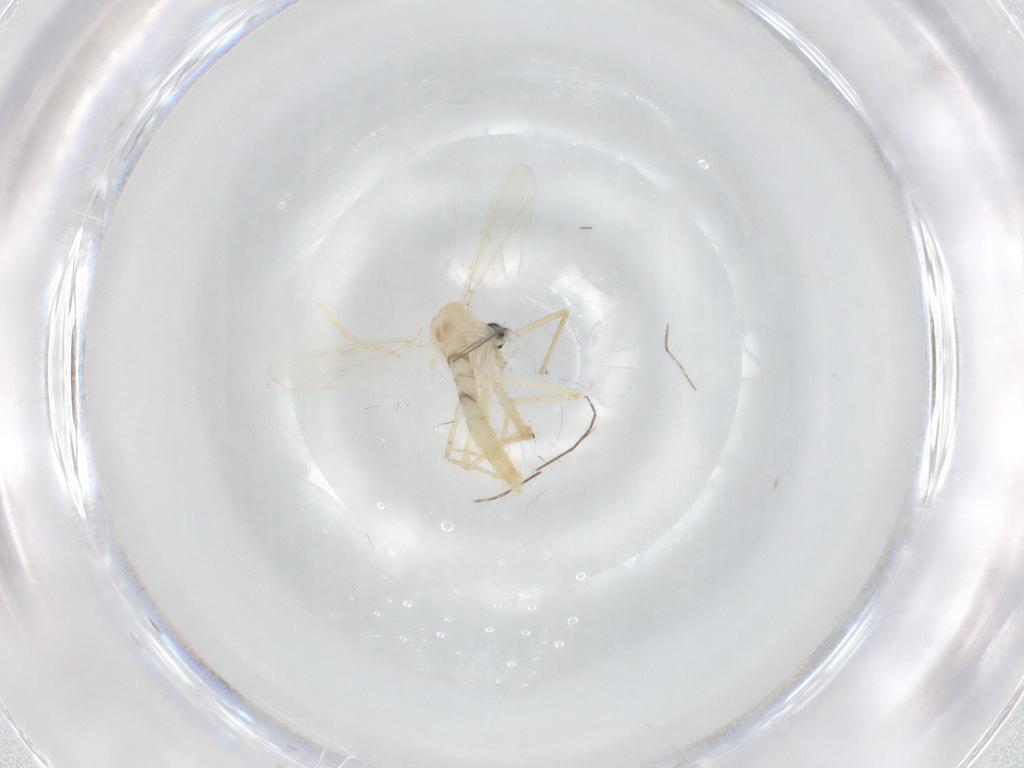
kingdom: Animalia
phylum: Arthropoda
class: Insecta
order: Diptera
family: Chironomidae
